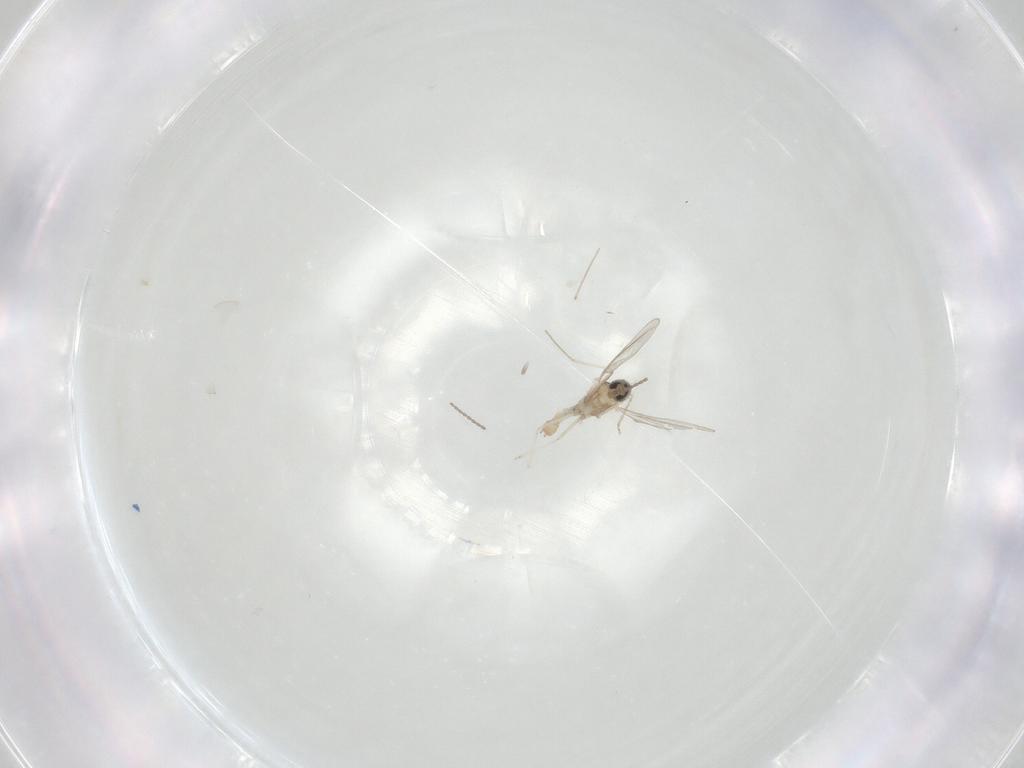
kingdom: Animalia
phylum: Arthropoda
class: Insecta
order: Diptera
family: Cecidomyiidae
